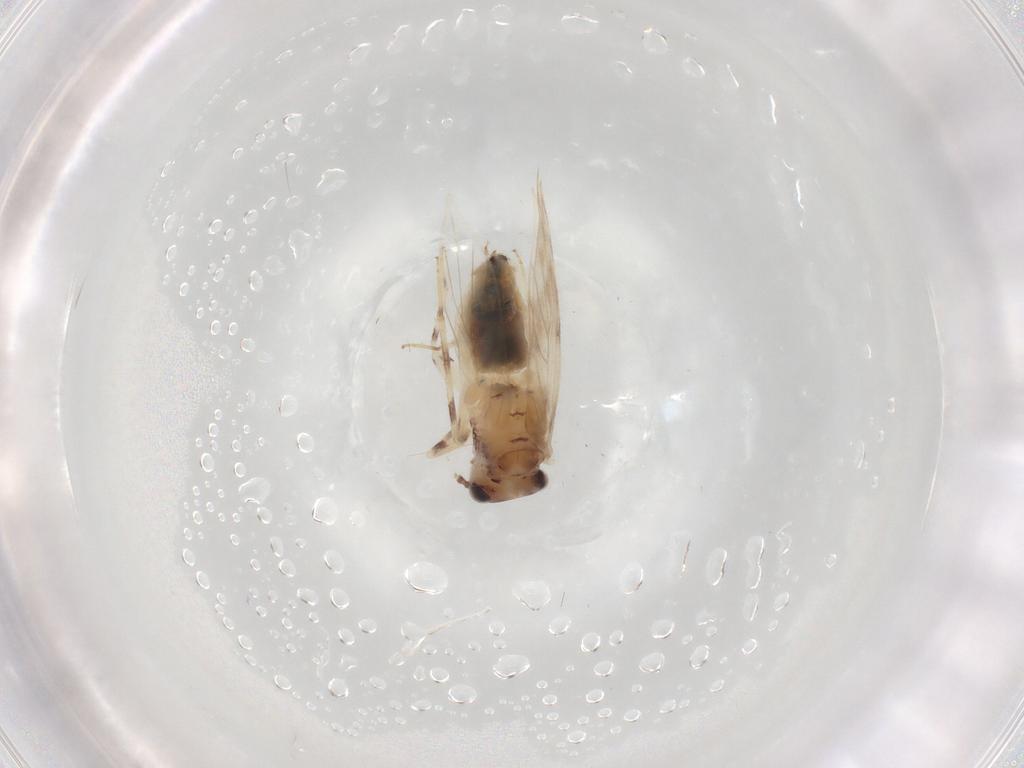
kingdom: Animalia
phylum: Arthropoda
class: Insecta
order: Psocodea
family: Lepidopsocidae
